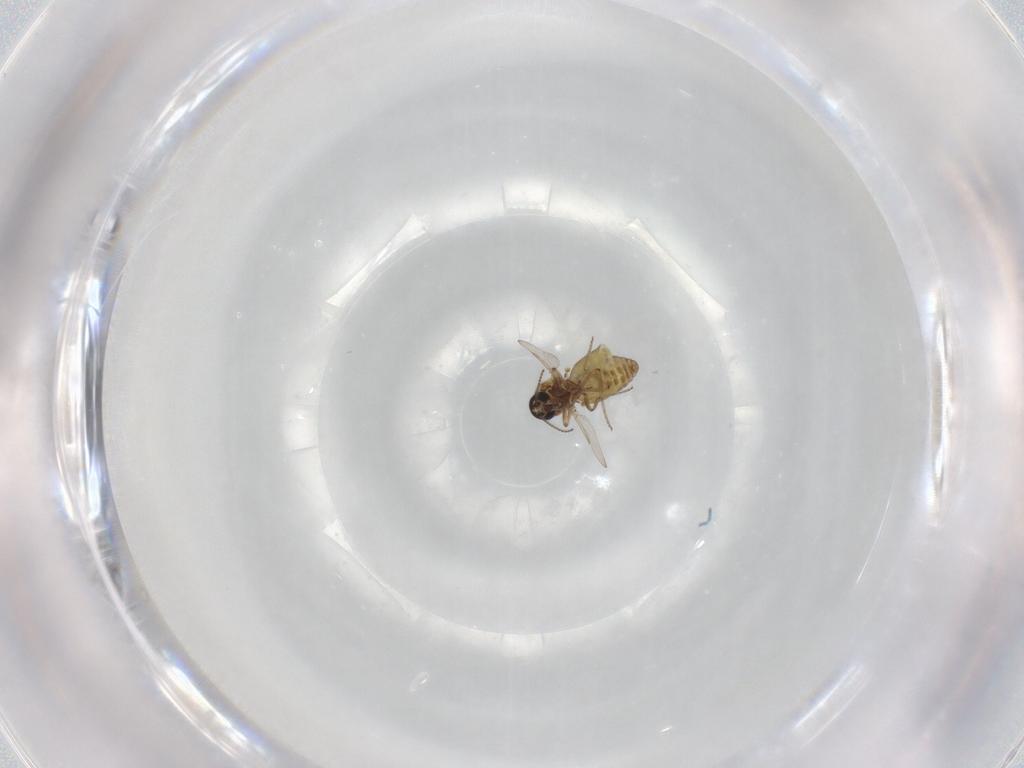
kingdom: Animalia
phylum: Arthropoda
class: Insecta
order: Diptera
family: Ceratopogonidae
